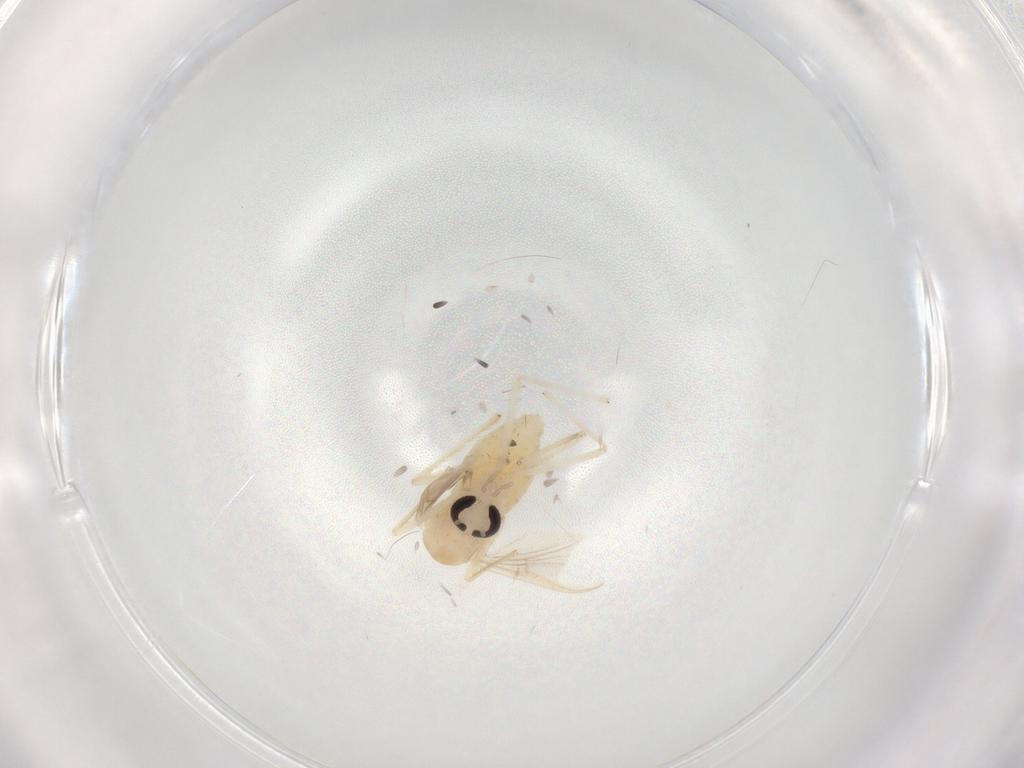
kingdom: Animalia
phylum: Arthropoda
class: Insecta
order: Diptera
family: Chironomidae
